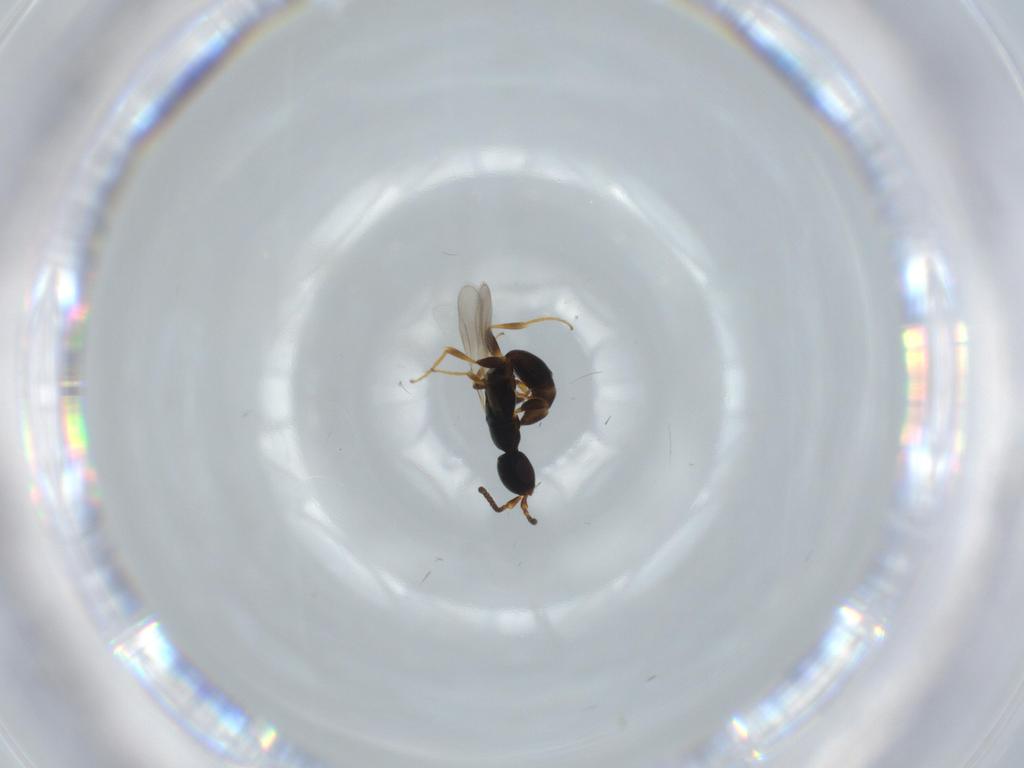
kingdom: Animalia
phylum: Arthropoda
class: Insecta
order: Hymenoptera
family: Bethylidae
